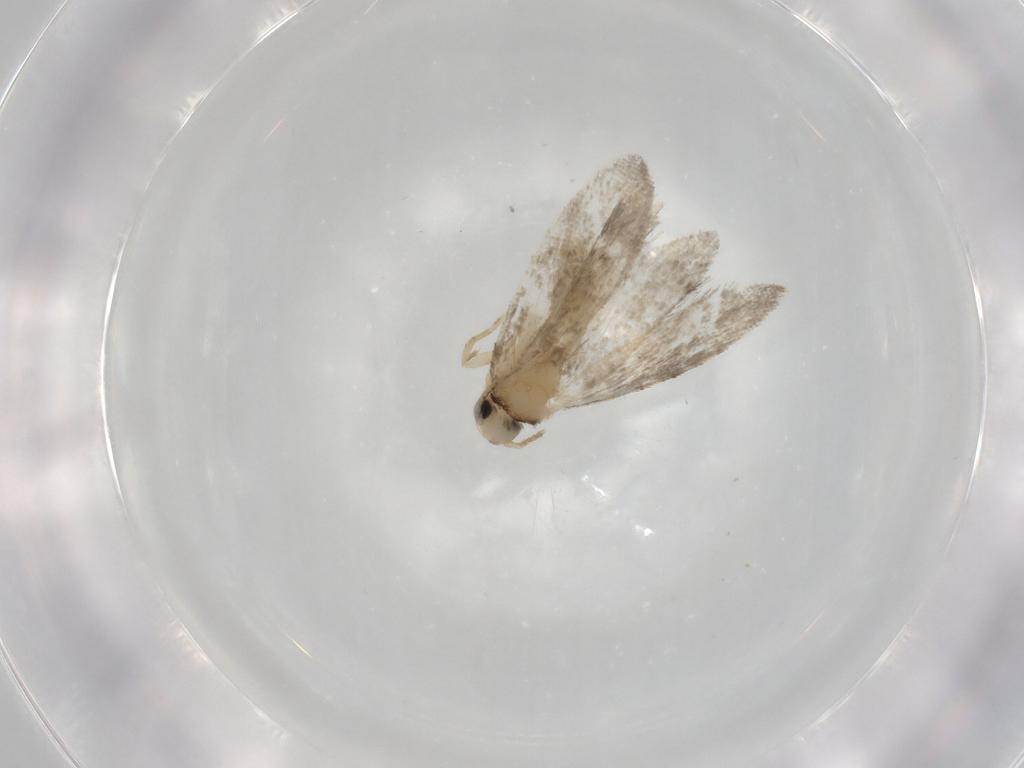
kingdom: Animalia
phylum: Arthropoda
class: Insecta
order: Lepidoptera
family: Psychidae
